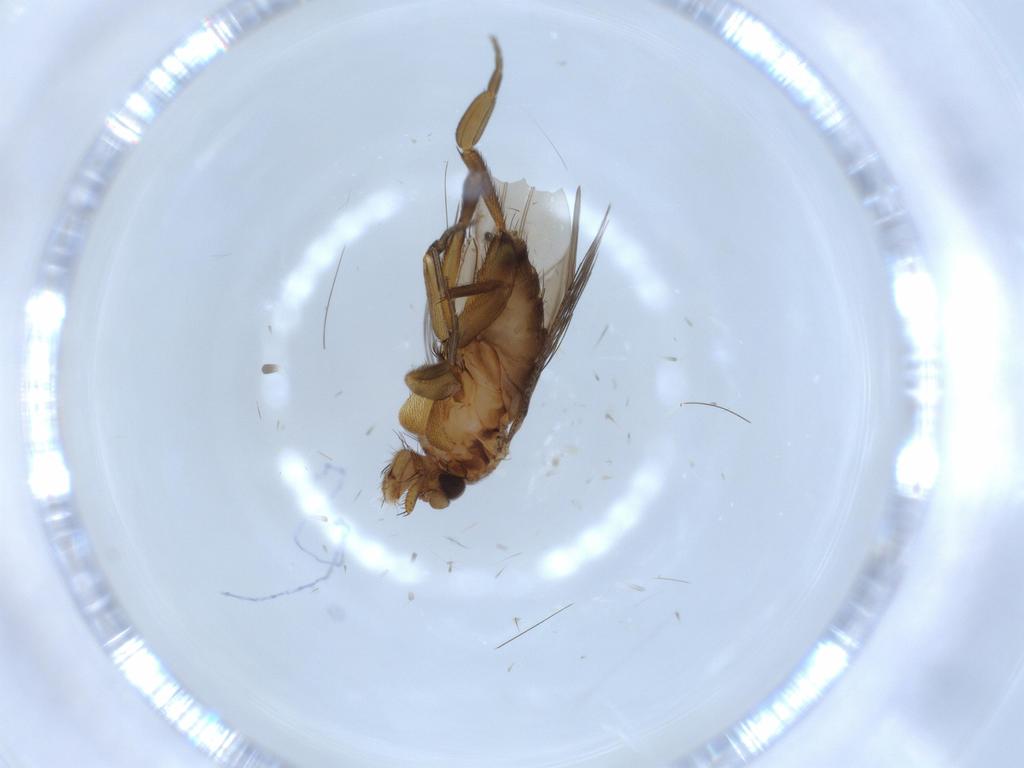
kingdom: Animalia
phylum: Arthropoda
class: Insecta
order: Diptera
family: Phoridae
